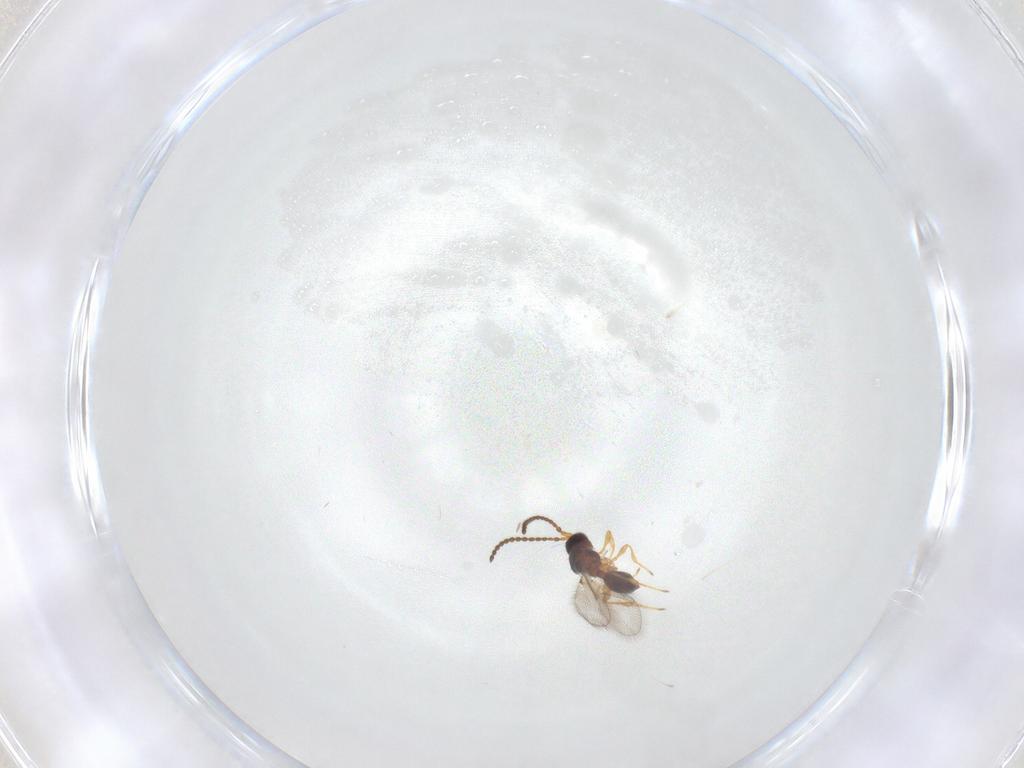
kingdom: Animalia
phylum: Arthropoda
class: Insecta
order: Hymenoptera
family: Diapriidae
